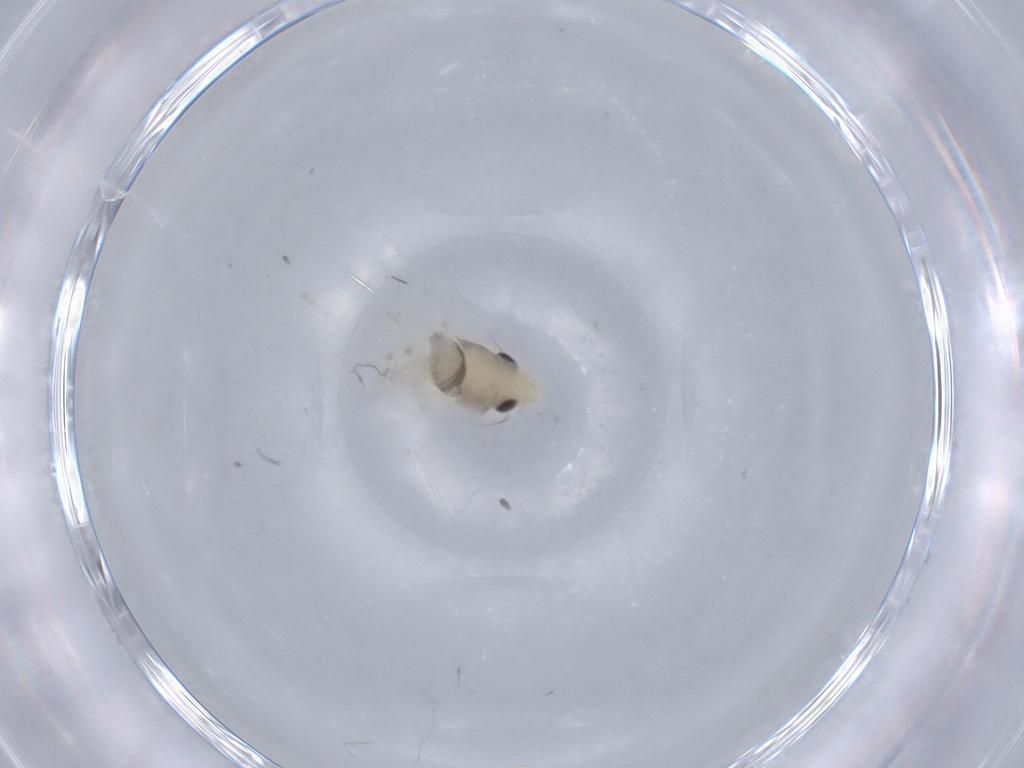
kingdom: Animalia
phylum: Arthropoda
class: Insecta
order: Hemiptera
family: Cicadellidae
